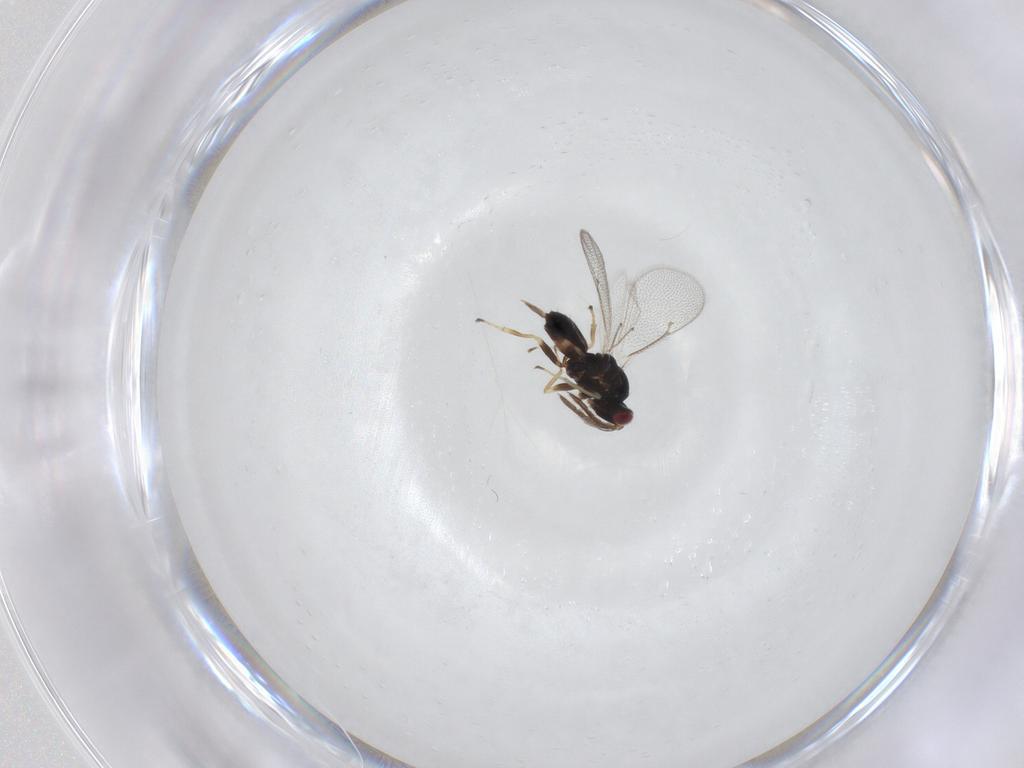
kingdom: Animalia
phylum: Arthropoda
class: Insecta
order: Hymenoptera
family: Eulophidae
